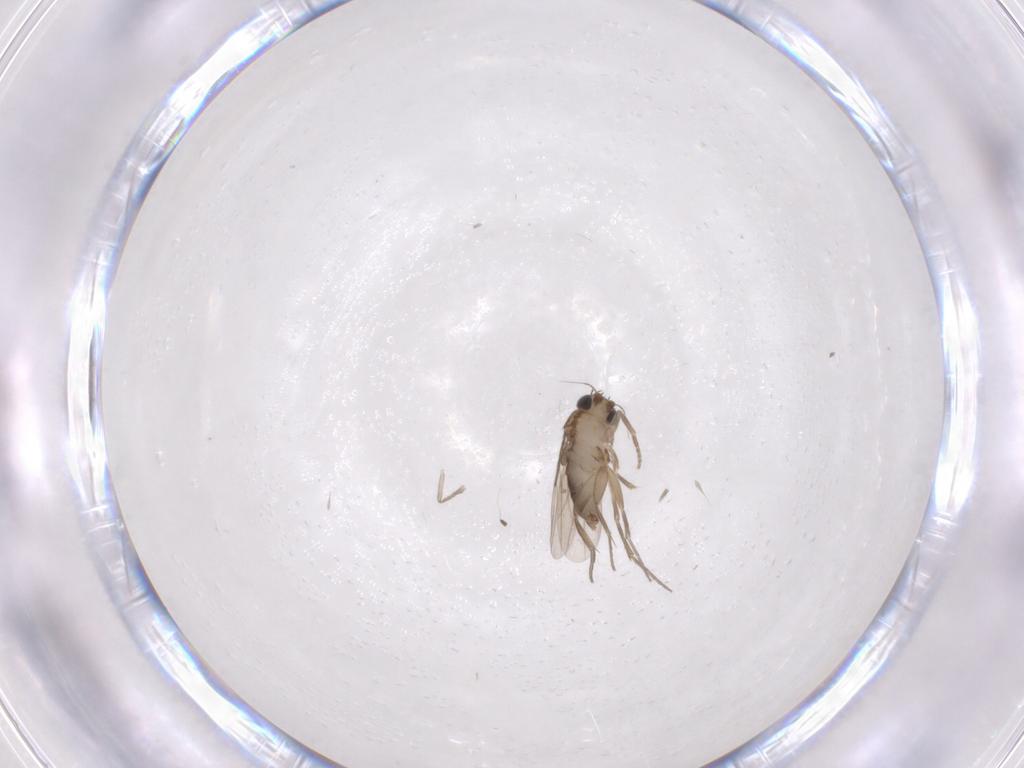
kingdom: Animalia
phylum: Arthropoda
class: Insecta
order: Diptera
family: Phoridae
